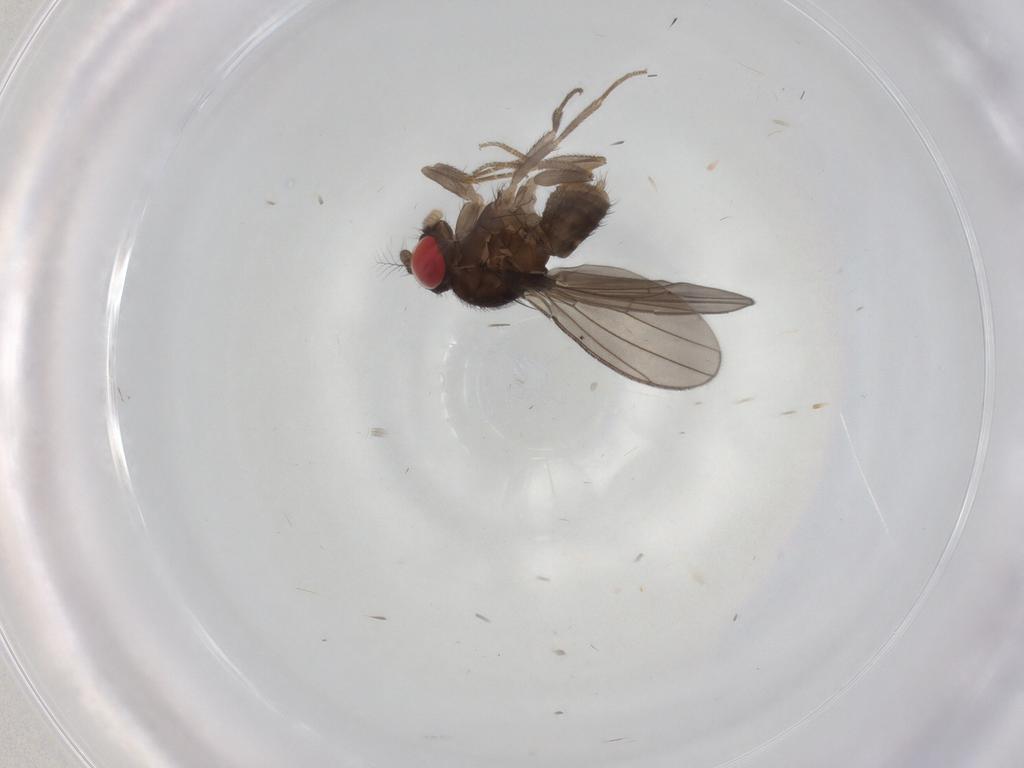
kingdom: Animalia
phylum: Arthropoda
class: Insecta
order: Diptera
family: Drosophilidae
